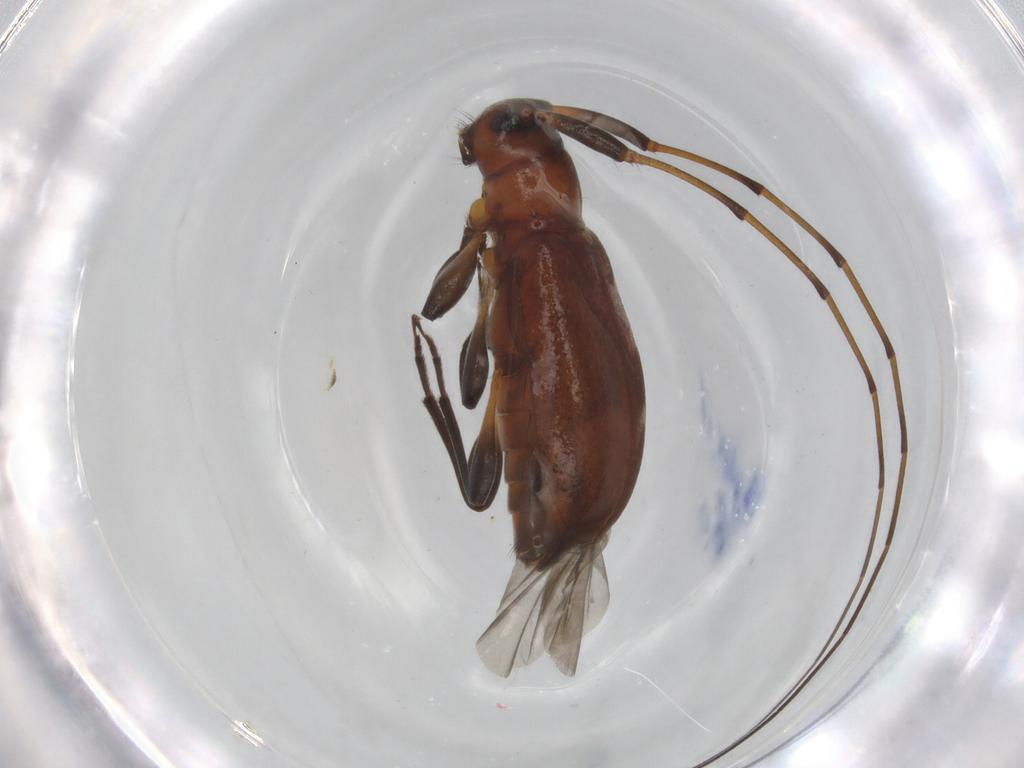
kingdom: Animalia
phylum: Arthropoda
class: Insecta
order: Coleoptera
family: Cerambycidae
